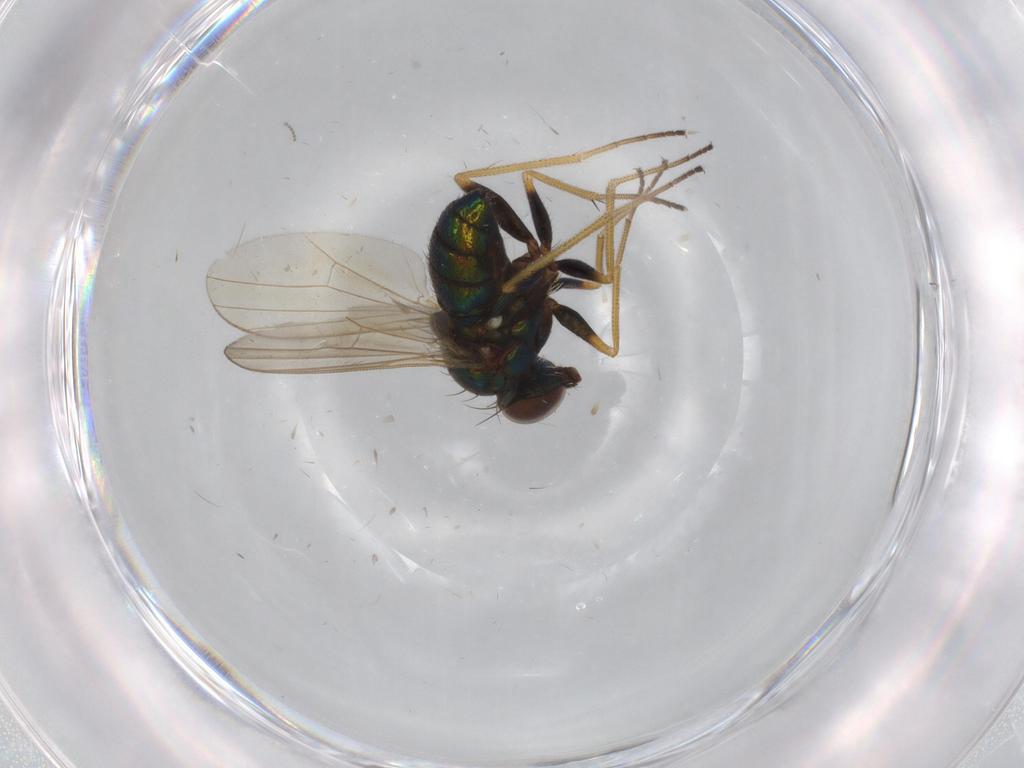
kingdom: Animalia
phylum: Arthropoda
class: Insecta
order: Diptera
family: Dolichopodidae
